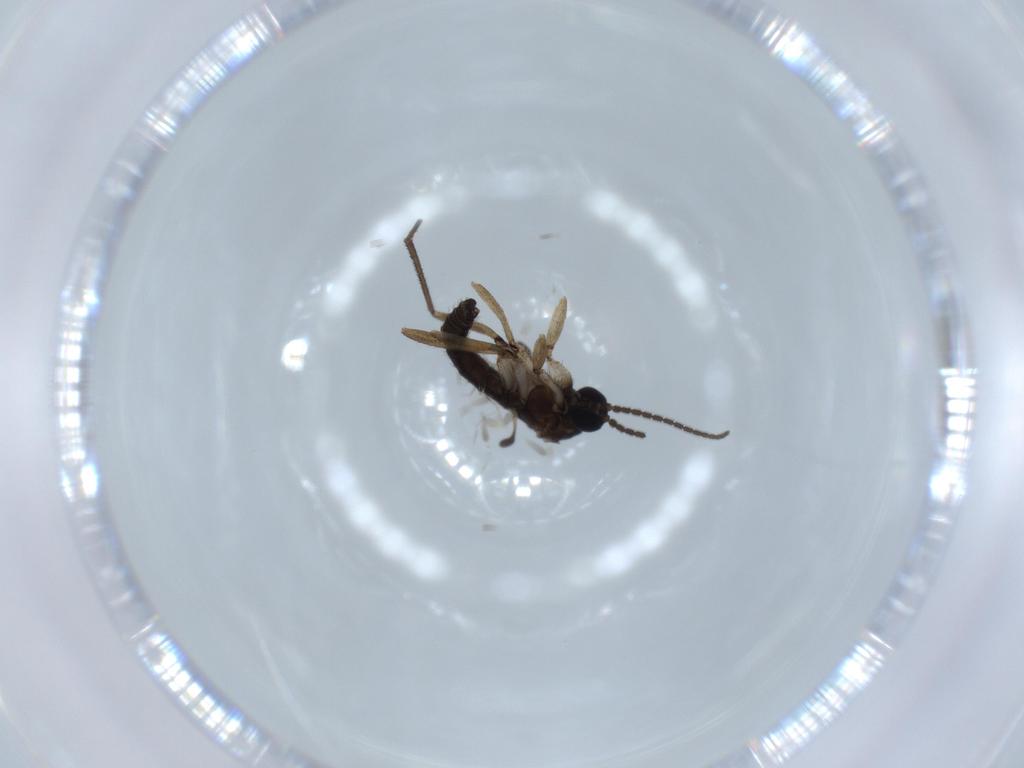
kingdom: Animalia
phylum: Arthropoda
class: Insecta
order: Diptera
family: Sciaridae
